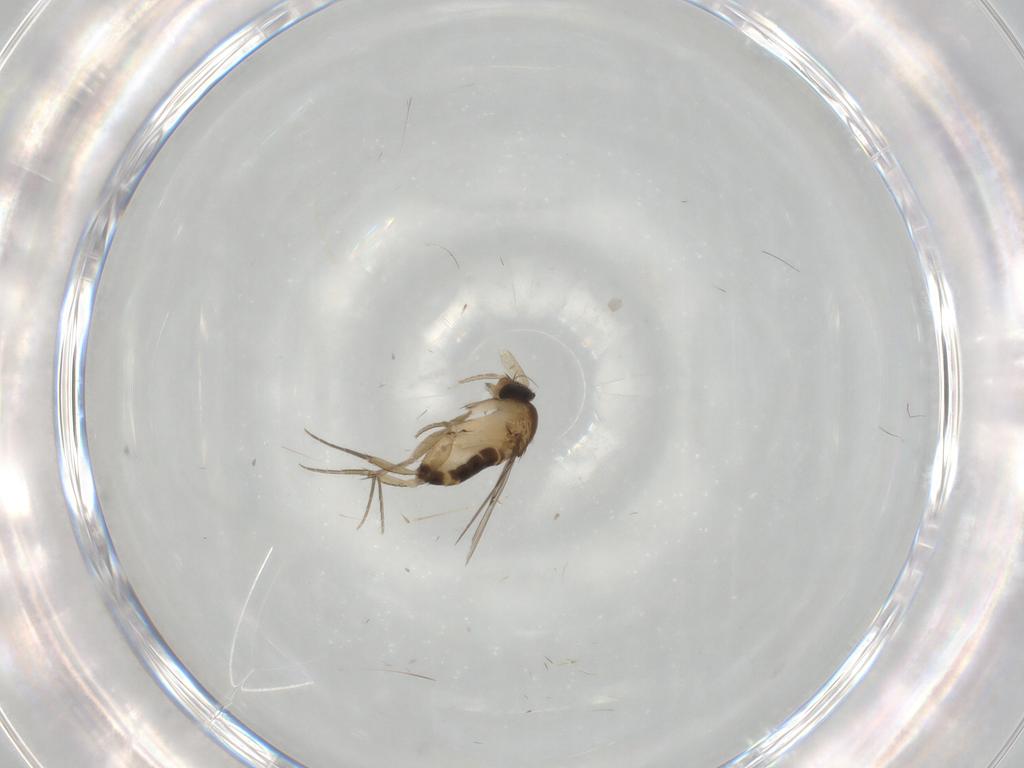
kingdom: Animalia
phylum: Arthropoda
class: Insecta
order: Diptera
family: Phoridae
